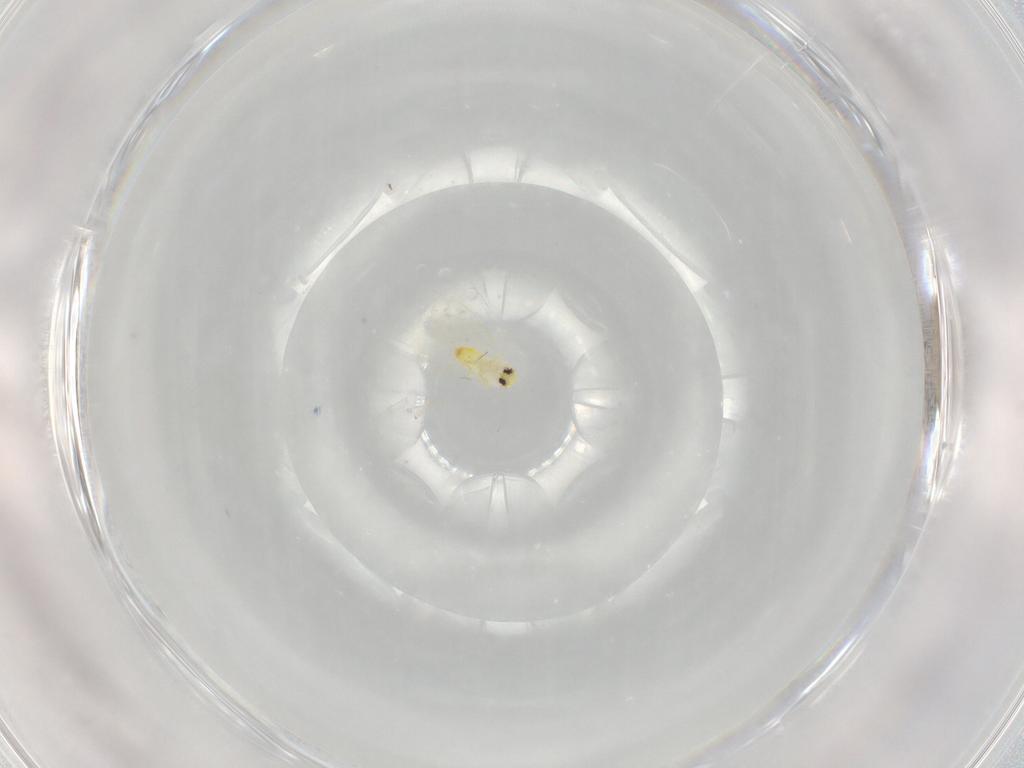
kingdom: Animalia
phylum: Arthropoda
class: Insecta
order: Hemiptera
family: Aleyrodidae
